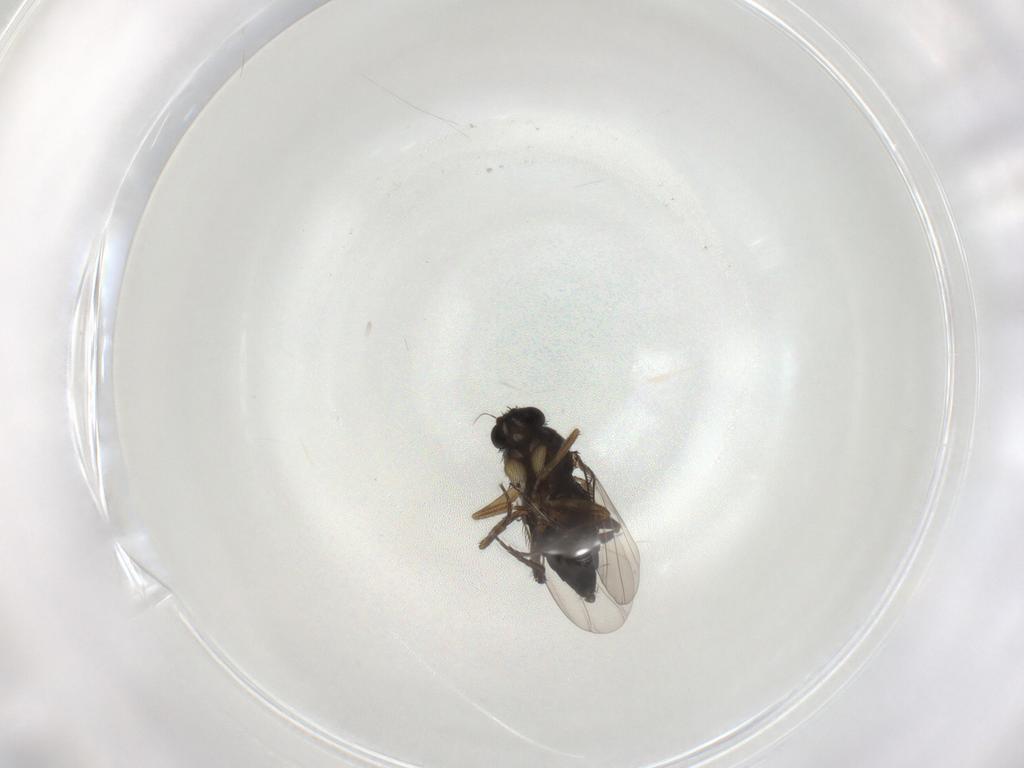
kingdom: Animalia
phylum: Arthropoda
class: Insecta
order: Diptera
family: Phoridae
